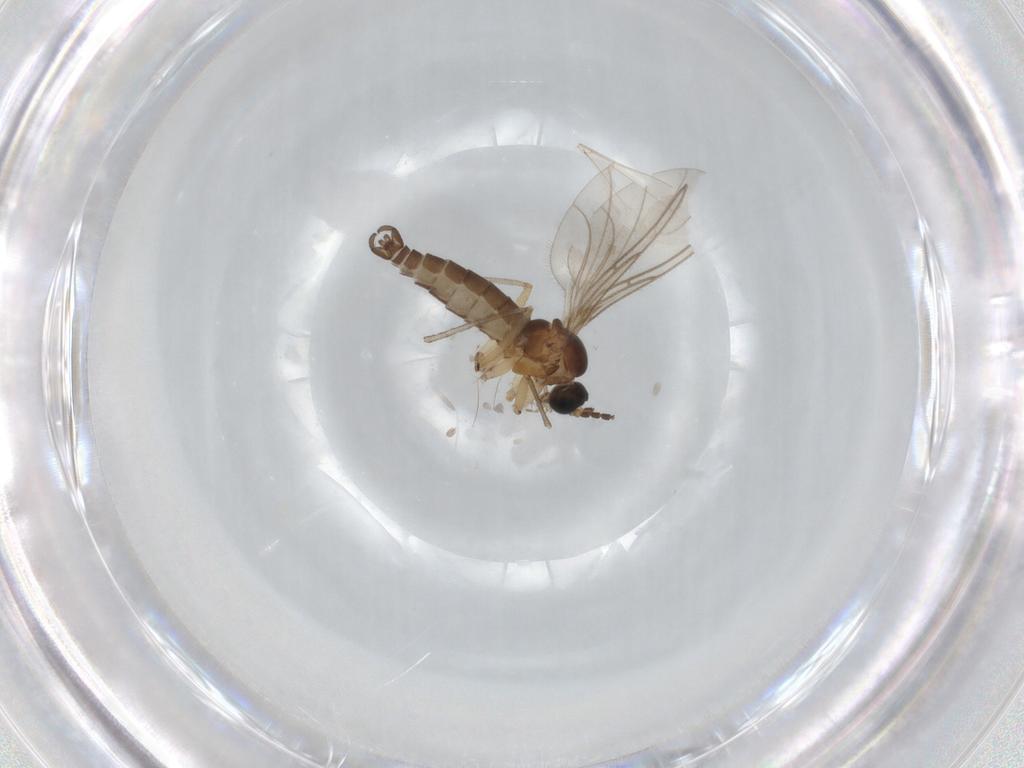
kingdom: Animalia
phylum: Arthropoda
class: Insecta
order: Diptera
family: Sciaridae
